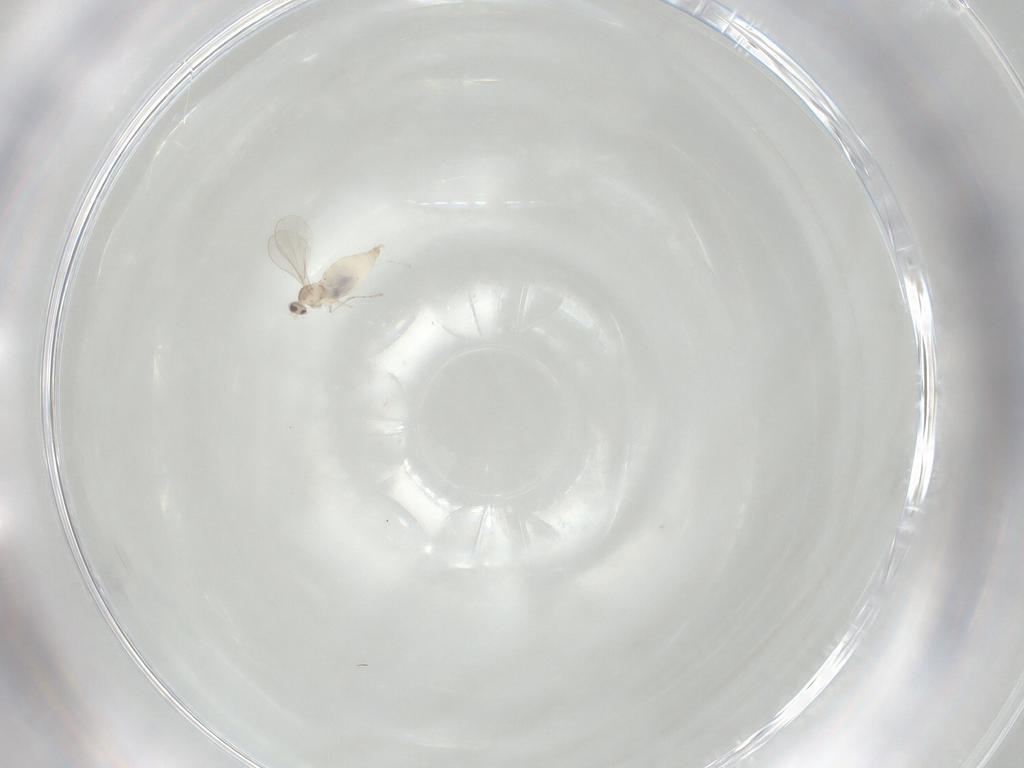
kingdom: Animalia
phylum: Arthropoda
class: Insecta
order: Diptera
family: Cecidomyiidae
